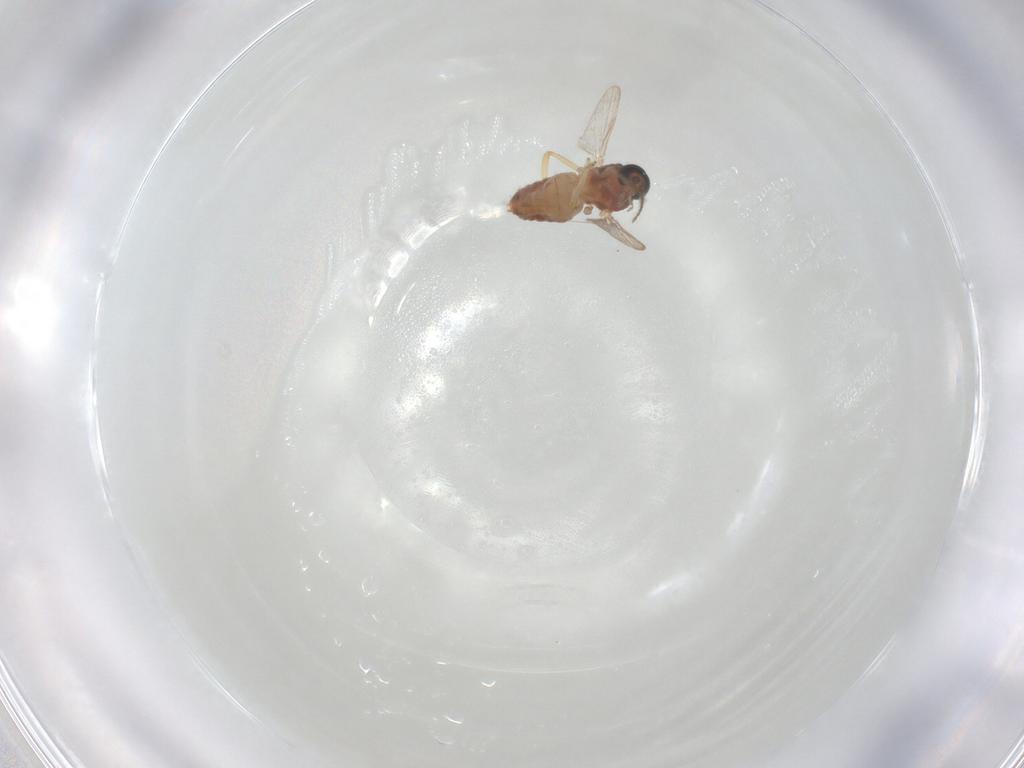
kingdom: Animalia
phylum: Arthropoda
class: Insecta
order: Diptera
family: Ceratopogonidae
